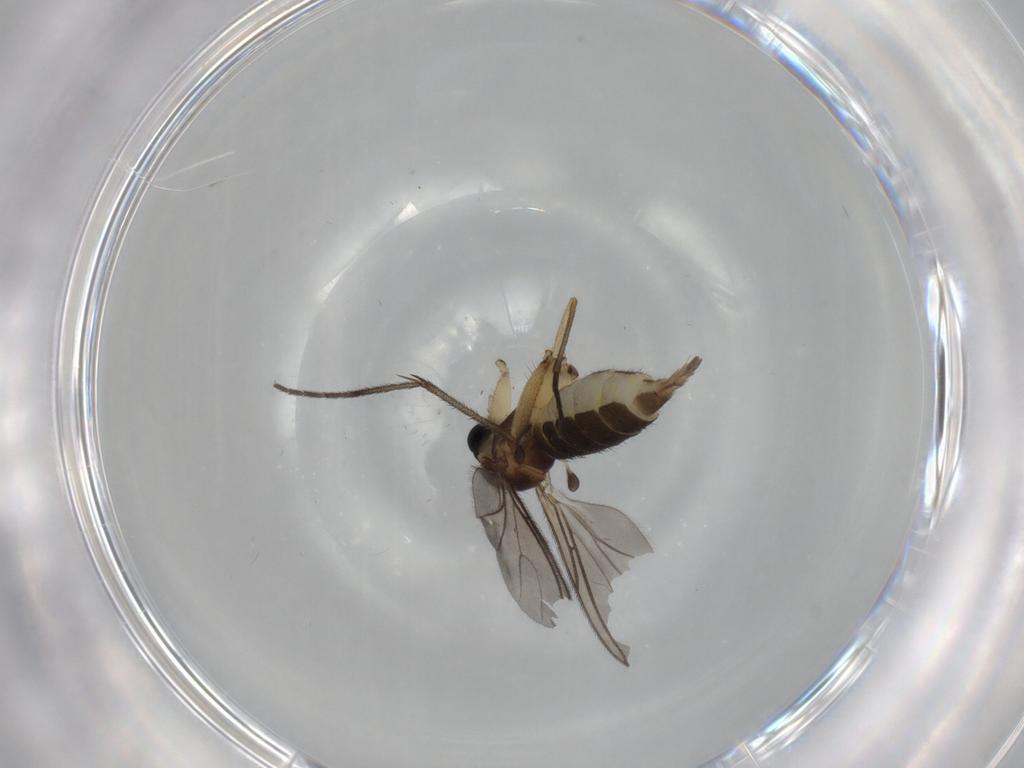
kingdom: Animalia
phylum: Arthropoda
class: Insecta
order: Diptera
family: Sciaridae
